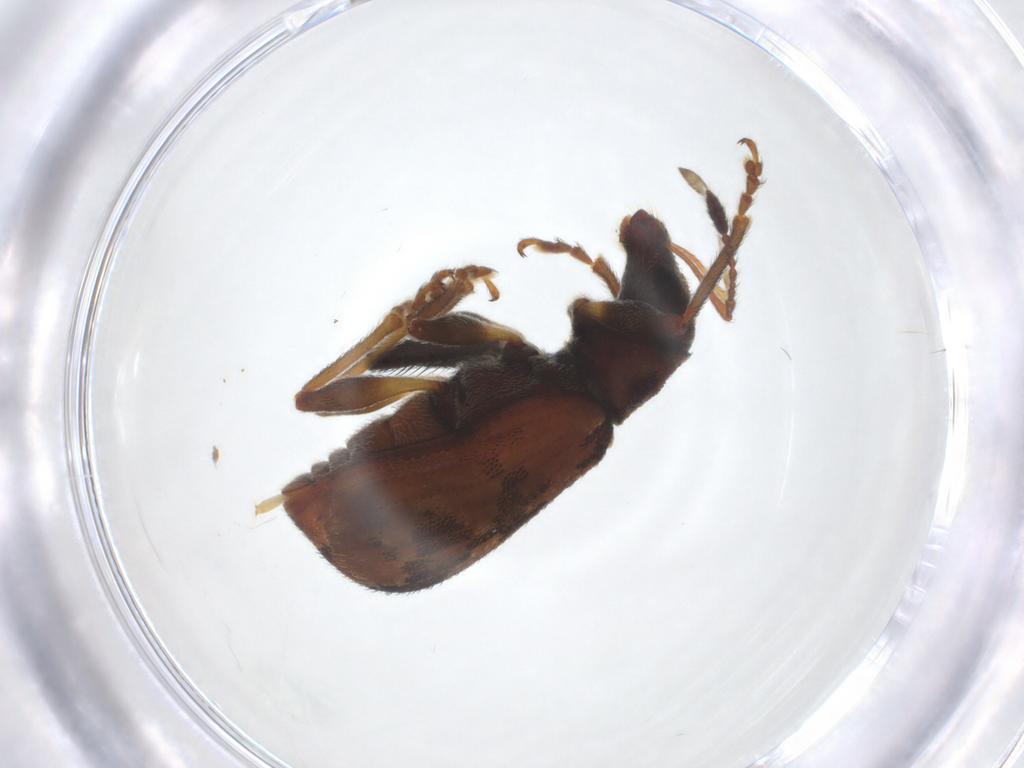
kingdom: Animalia
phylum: Arthropoda
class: Insecta
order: Coleoptera
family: Curculionidae
